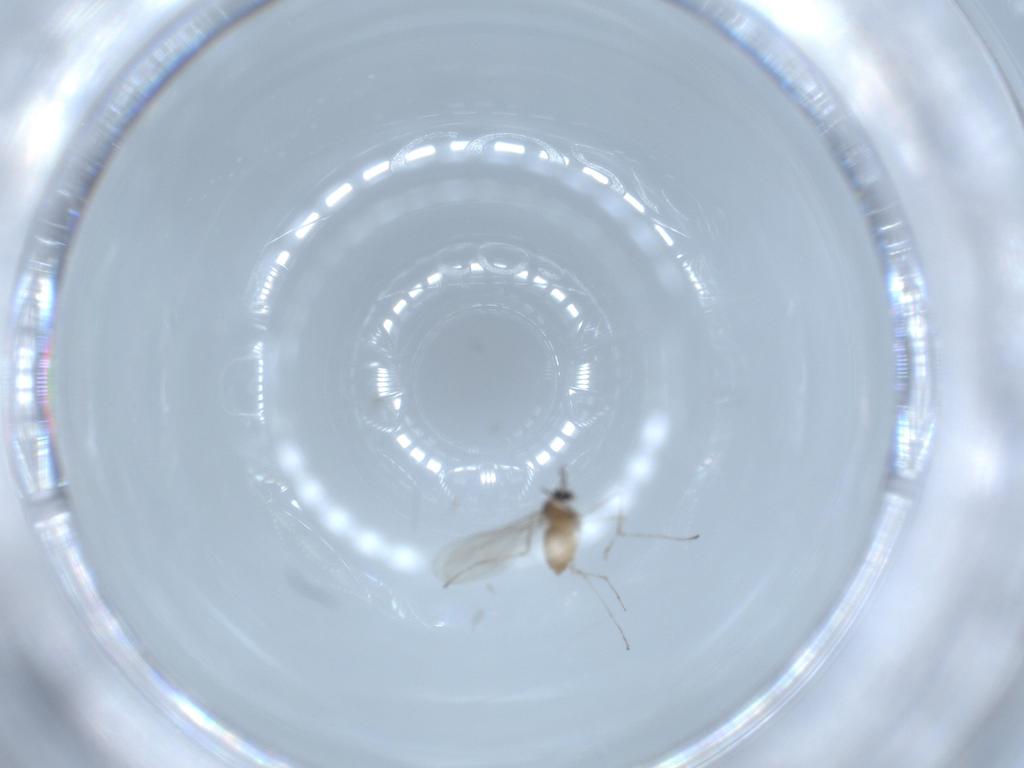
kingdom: Animalia
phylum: Arthropoda
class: Insecta
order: Diptera
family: Cecidomyiidae
